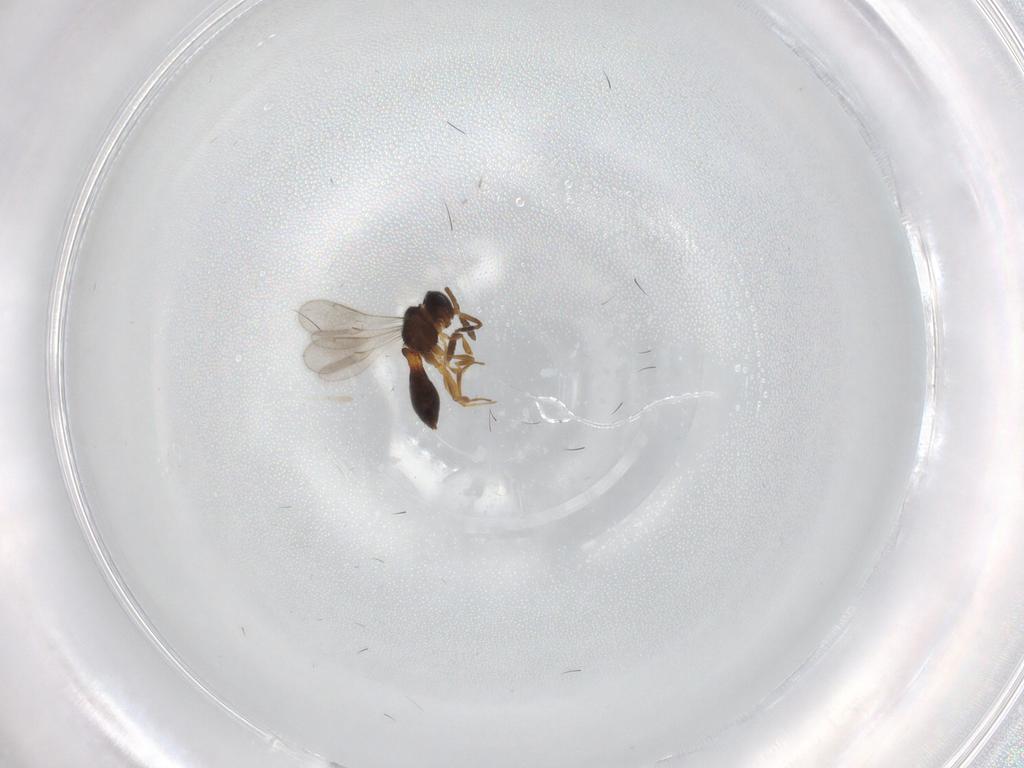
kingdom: Animalia
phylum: Arthropoda
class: Insecta
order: Hymenoptera
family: Scelionidae
